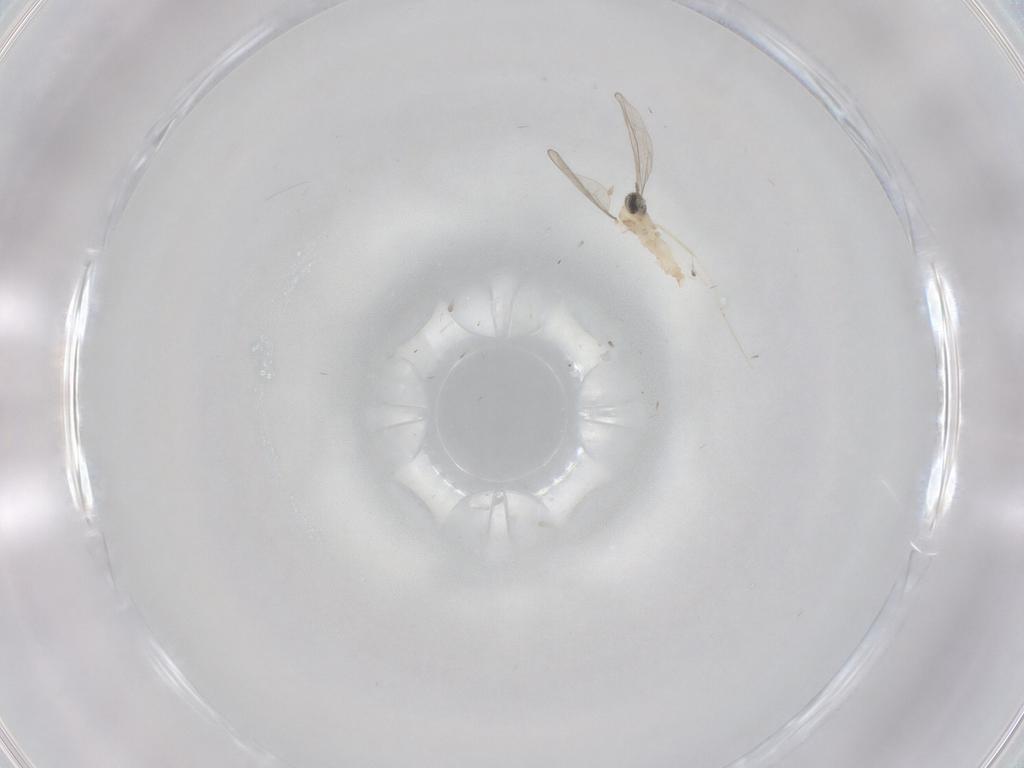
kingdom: Animalia
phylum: Arthropoda
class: Insecta
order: Diptera
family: Cecidomyiidae
